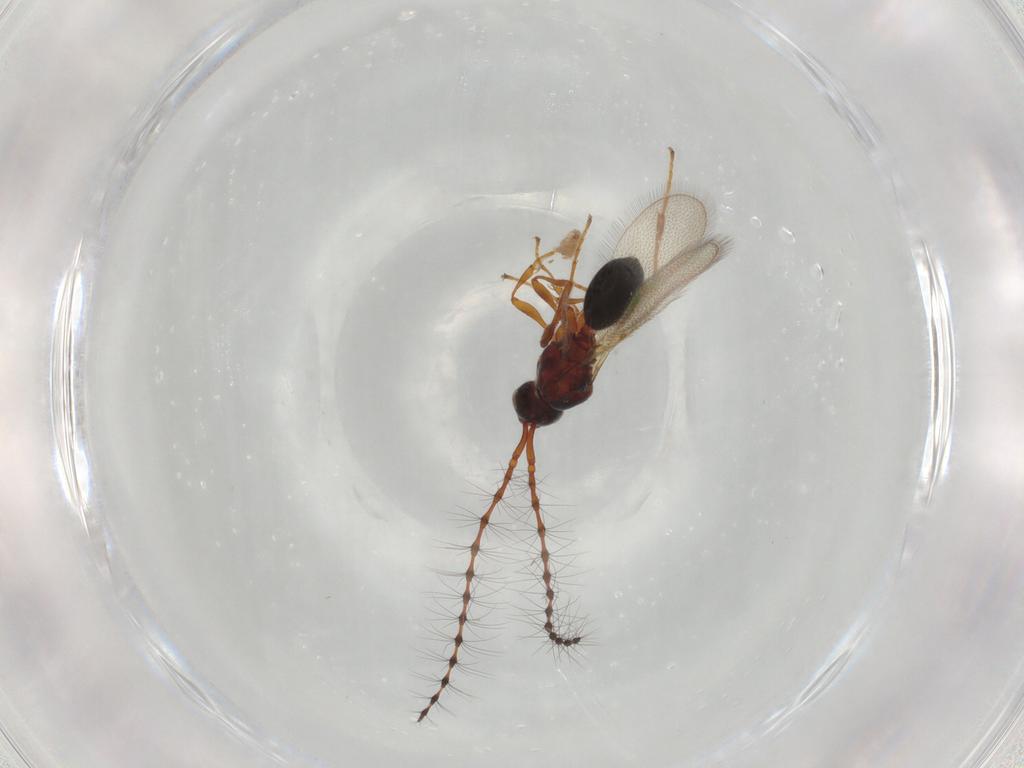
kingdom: Animalia
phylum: Arthropoda
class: Insecta
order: Hymenoptera
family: Diapriidae
